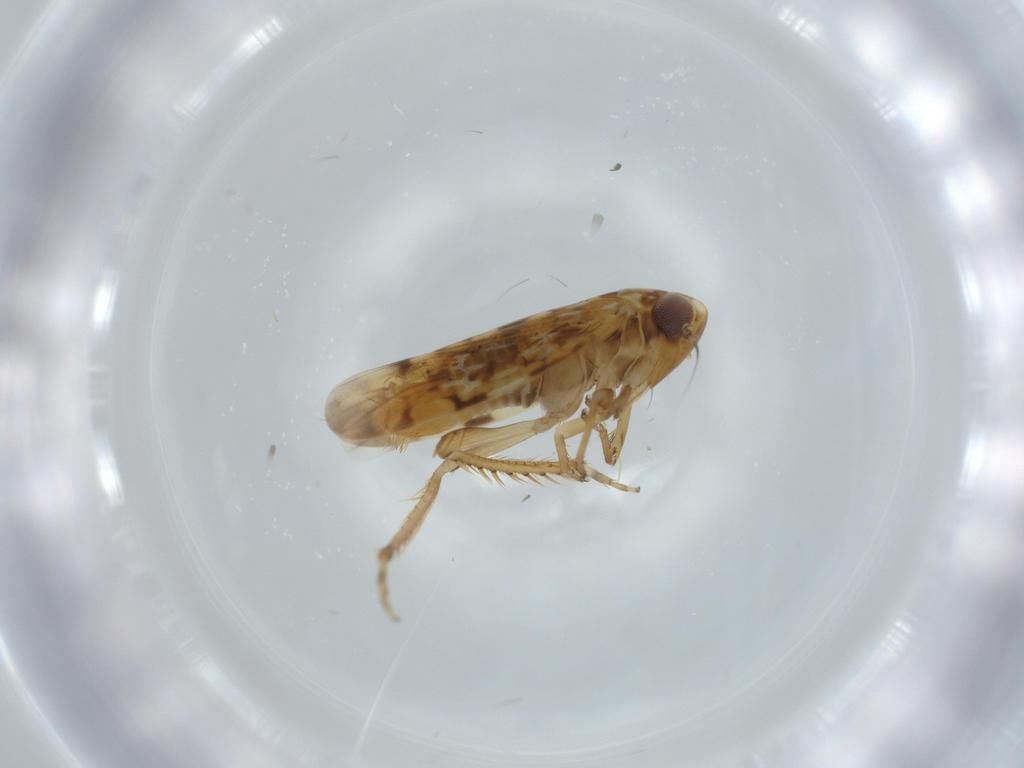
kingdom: Animalia
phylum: Arthropoda
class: Insecta
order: Hemiptera
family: Cicadellidae
